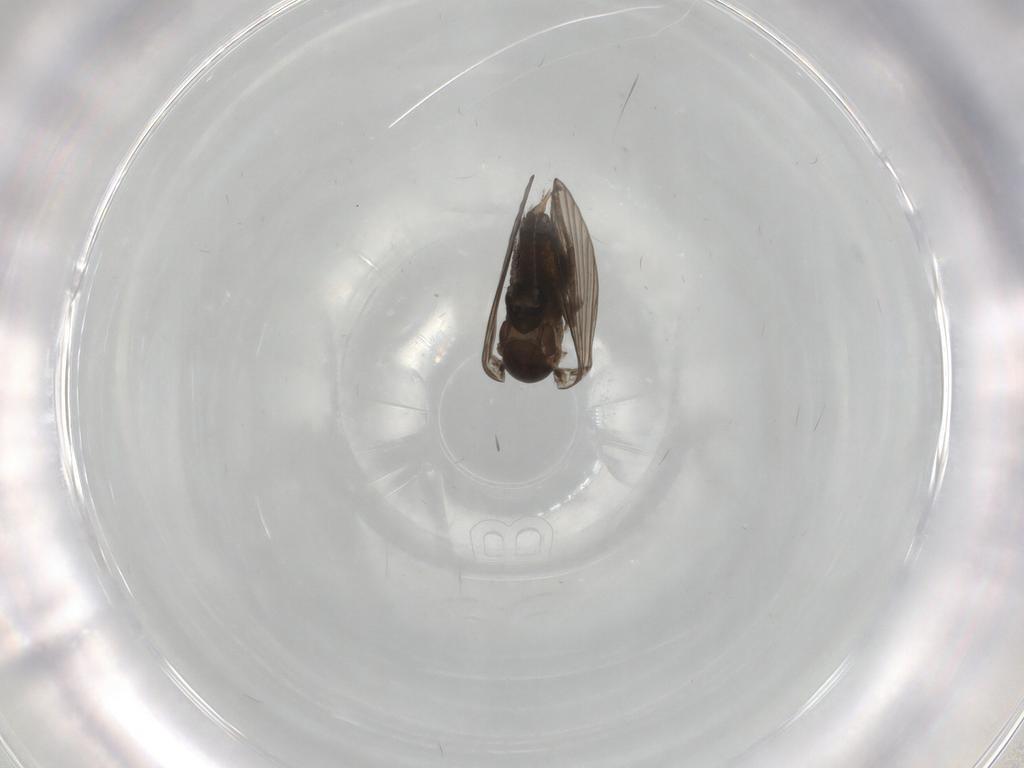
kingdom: Animalia
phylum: Arthropoda
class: Insecta
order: Diptera
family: Psychodidae
